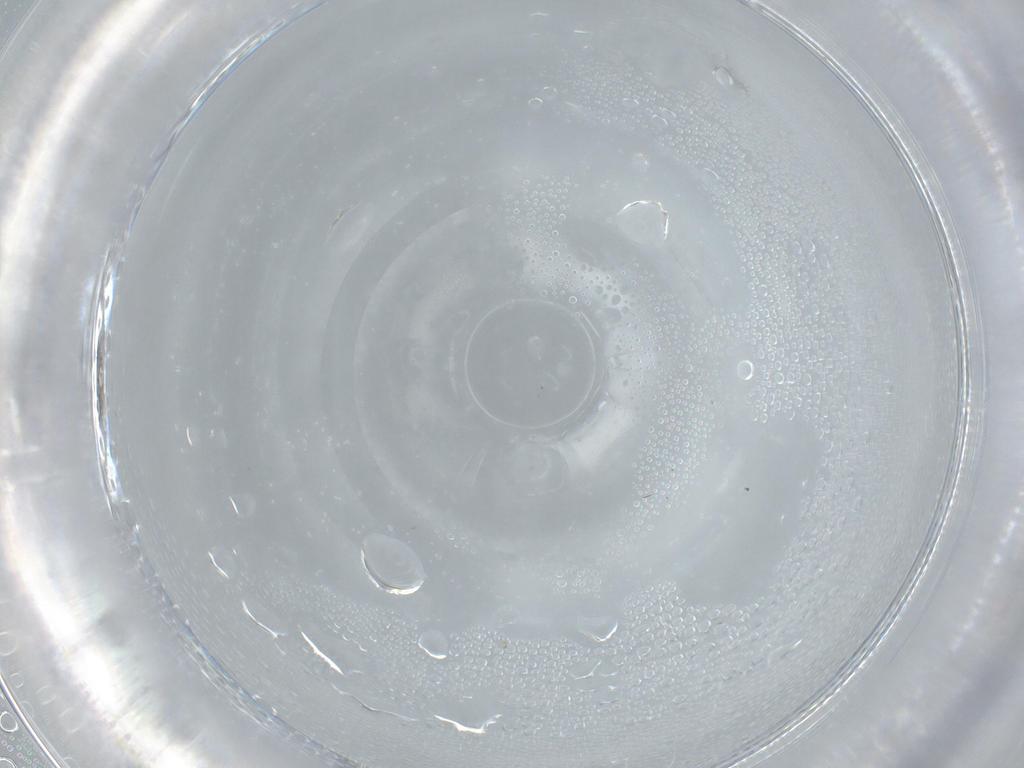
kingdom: Animalia
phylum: Arthropoda
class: Insecta
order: Diptera
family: Cecidomyiidae
